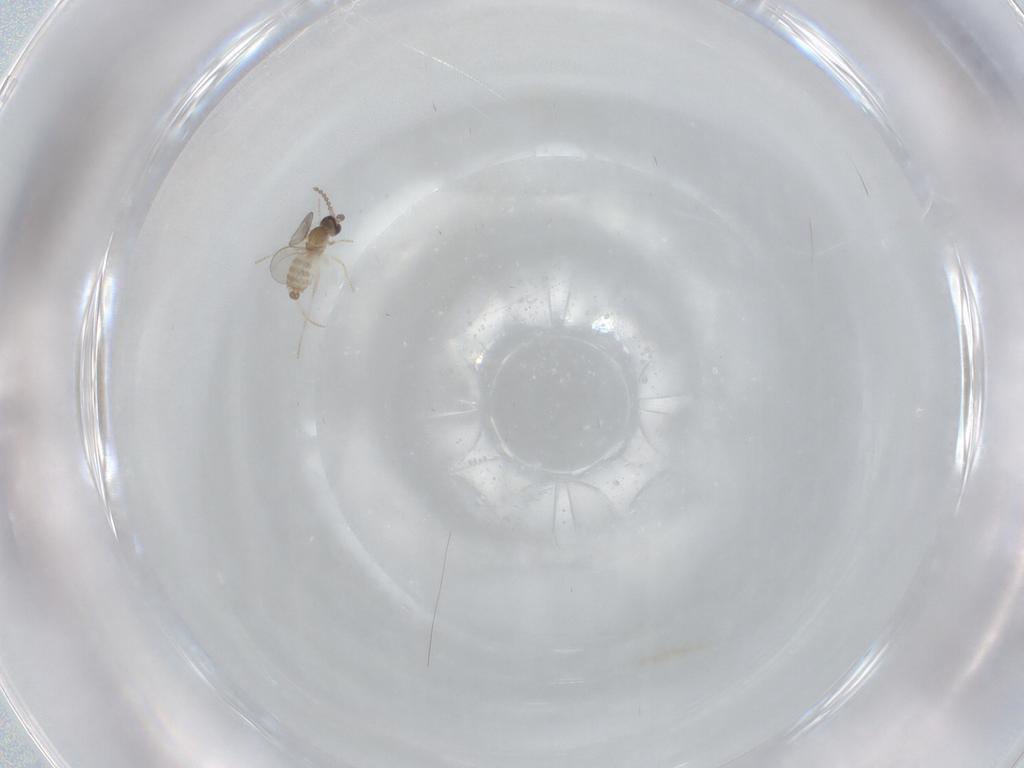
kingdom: Animalia
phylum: Arthropoda
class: Insecta
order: Diptera
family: Cecidomyiidae
